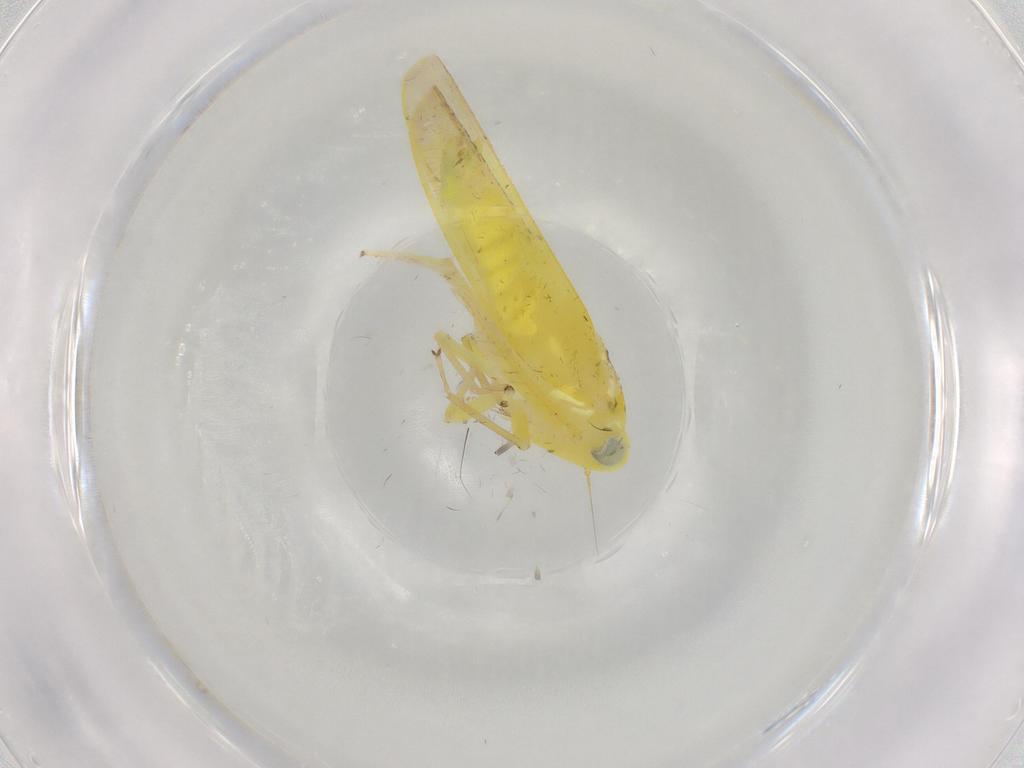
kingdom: Animalia
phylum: Arthropoda
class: Insecta
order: Hemiptera
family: Cicadellidae
